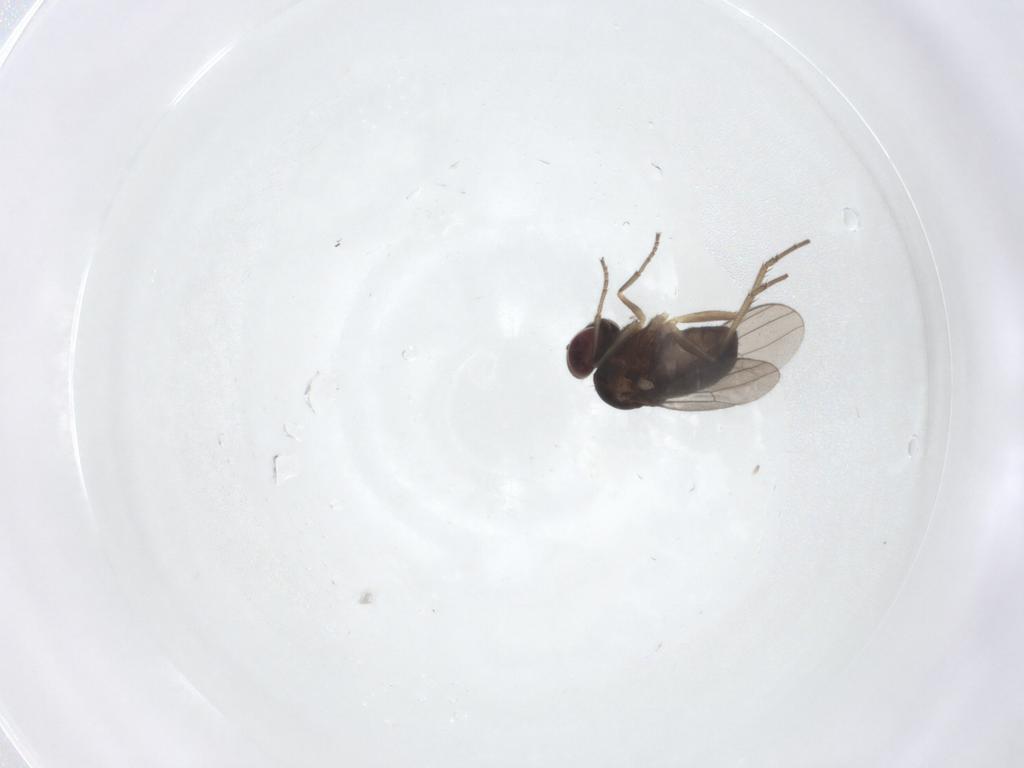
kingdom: Animalia
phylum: Arthropoda
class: Insecta
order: Diptera
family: Dolichopodidae
